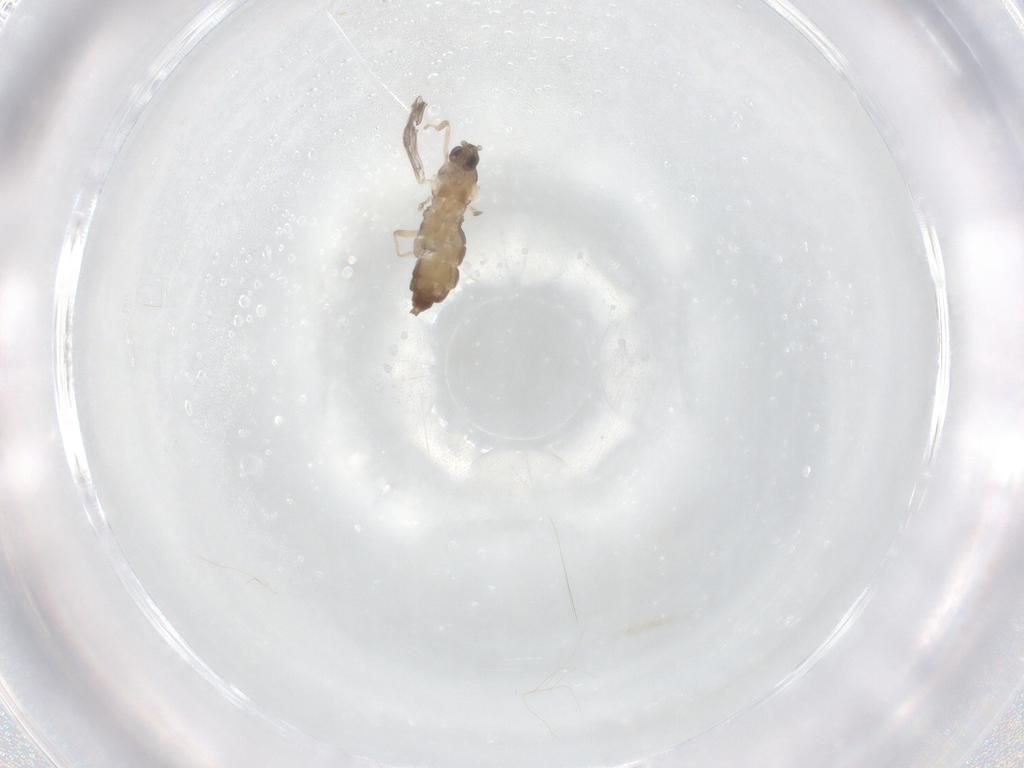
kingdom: Animalia
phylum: Arthropoda
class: Insecta
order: Diptera
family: Cecidomyiidae
